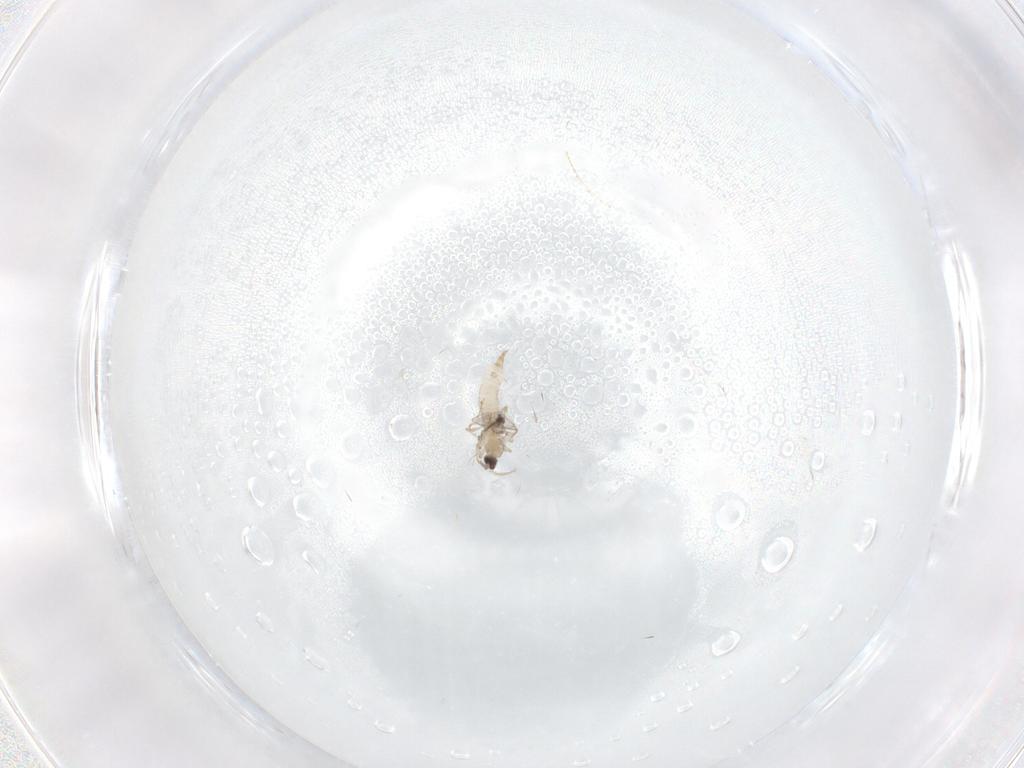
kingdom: Animalia
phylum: Arthropoda
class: Insecta
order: Diptera
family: Cecidomyiidae
